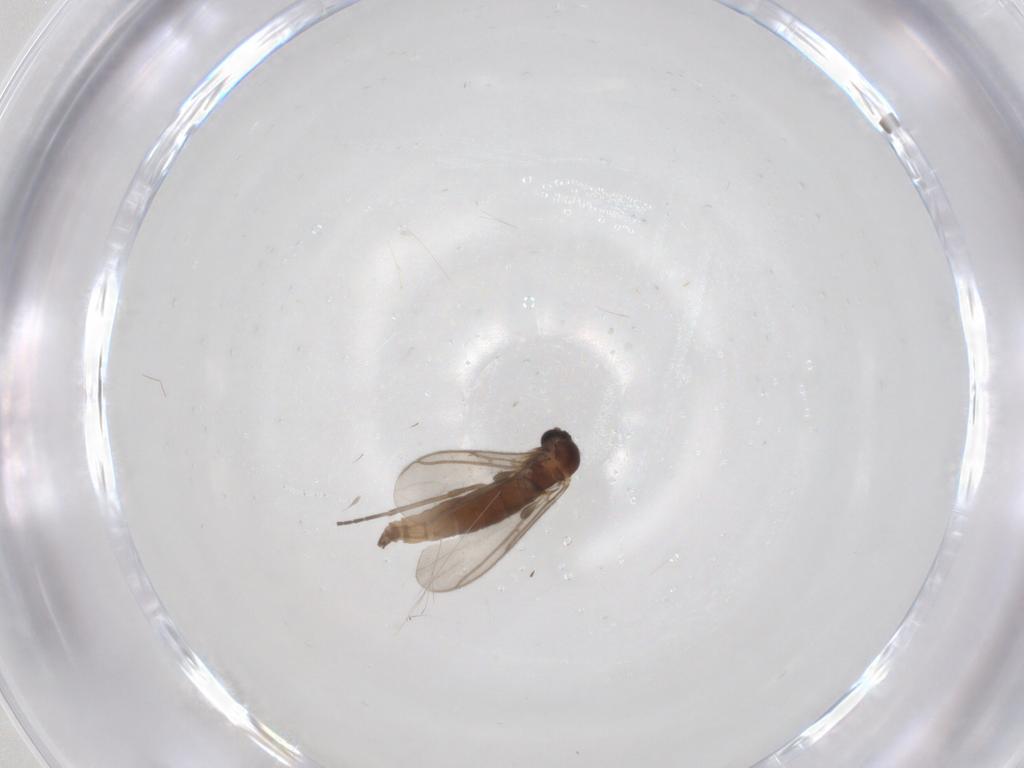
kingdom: Animalia
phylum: Arthropoda
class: Insecta
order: Diptera
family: Sciaridae
